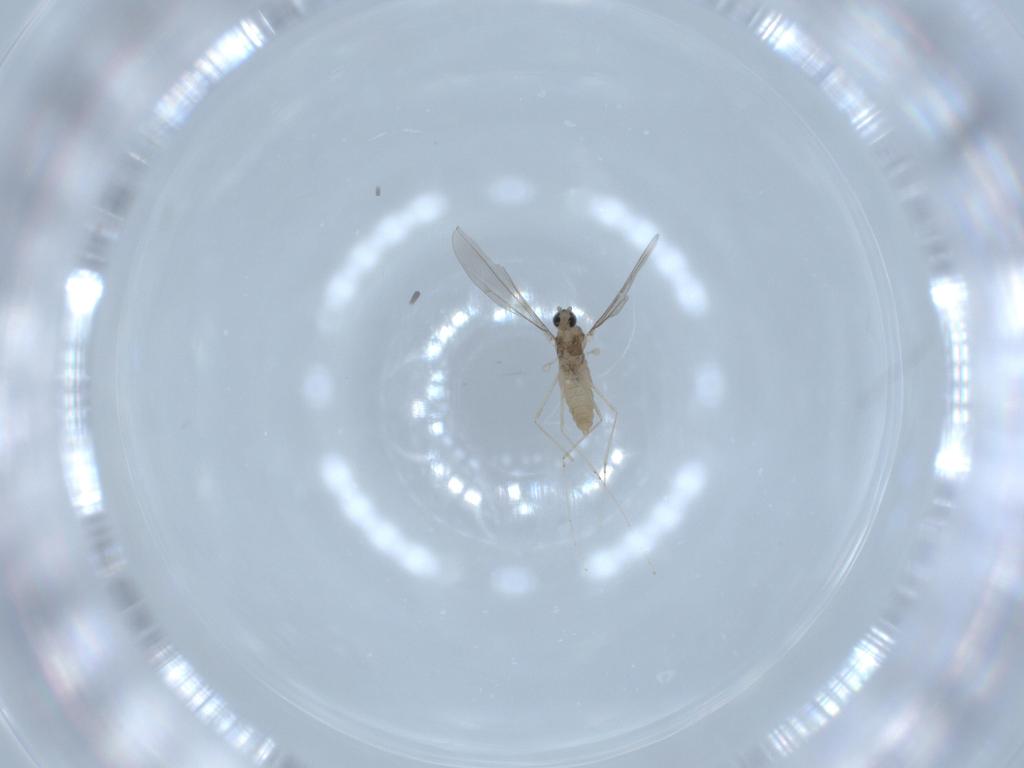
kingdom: Animalia
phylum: Arthropoda
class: Insecta
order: Diptera
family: Cecidomyiidae
